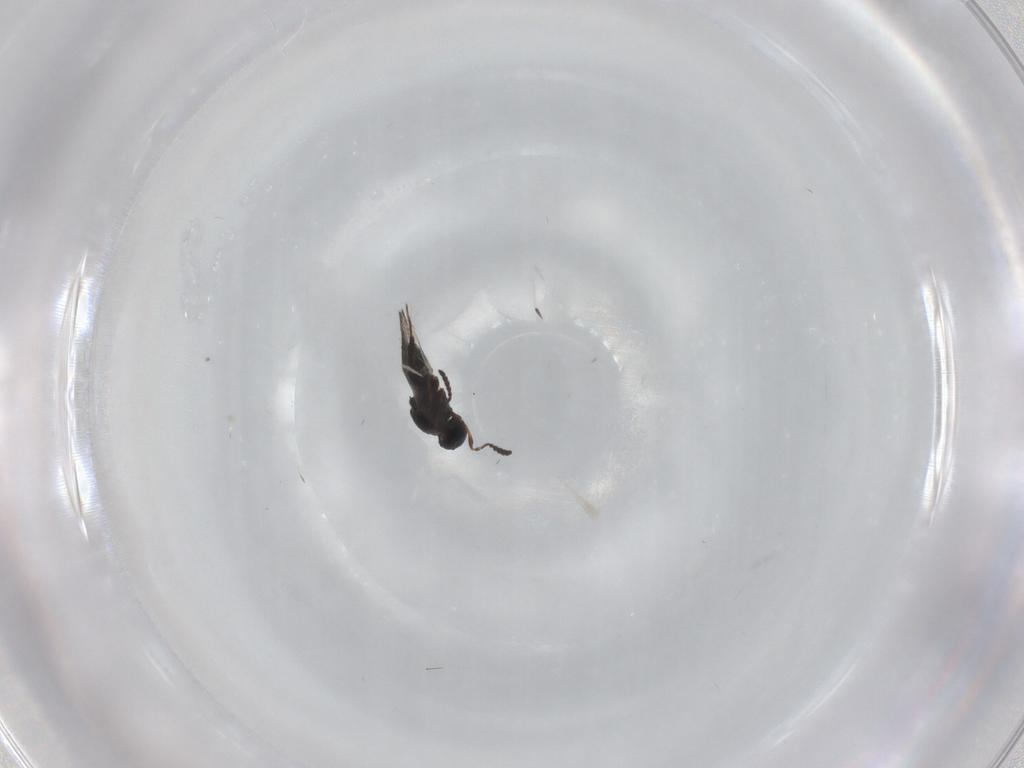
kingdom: Animalia
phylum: Arthropoda
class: Insecta
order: Hymenoptera
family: Platygastridae
